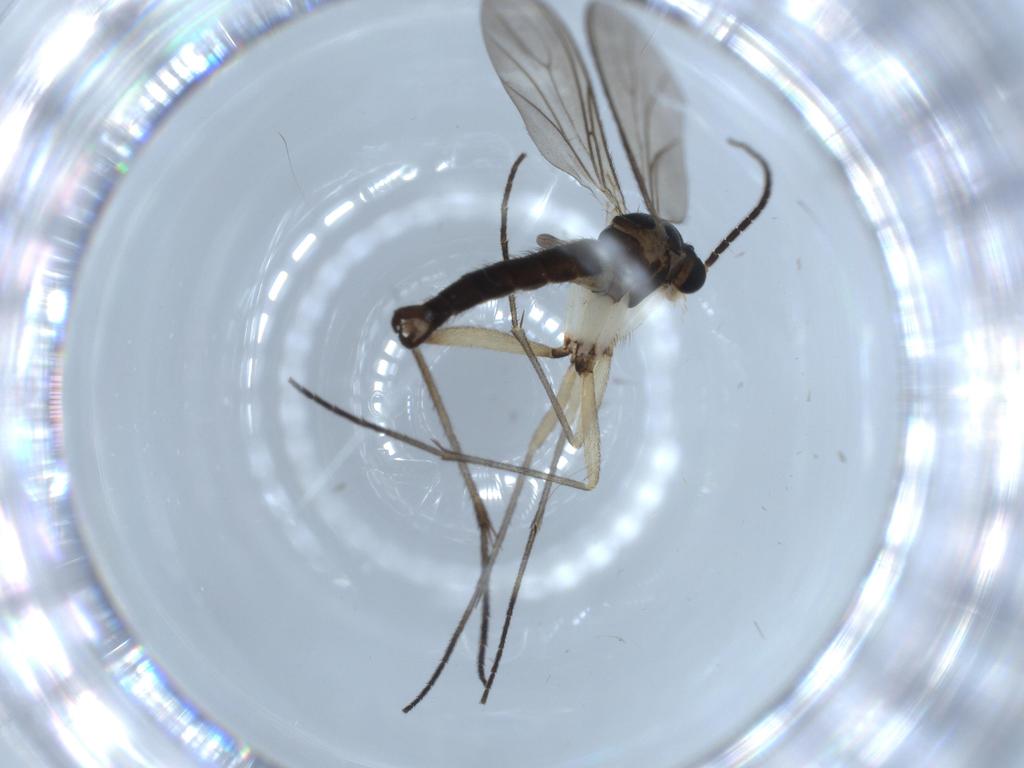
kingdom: Animalia
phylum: Arthropoda
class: Insecta
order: Diptera
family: Sciaridae
